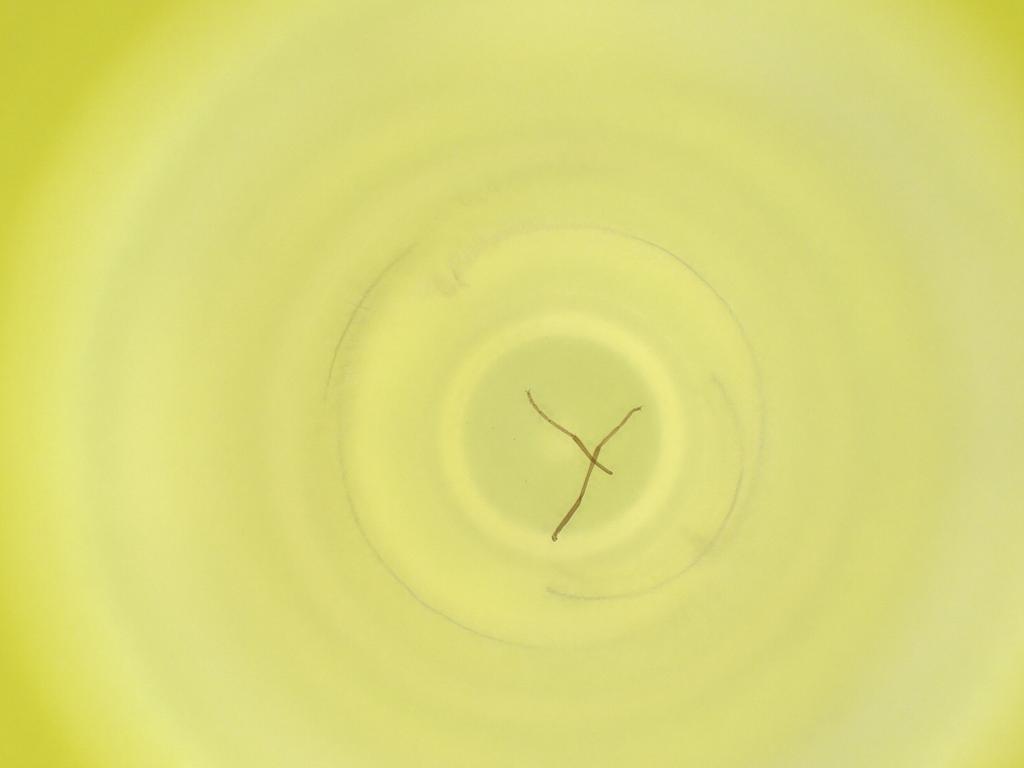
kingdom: Animalia
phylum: Arthropoda
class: Insecta
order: Diptera
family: Cecidomyiidae
